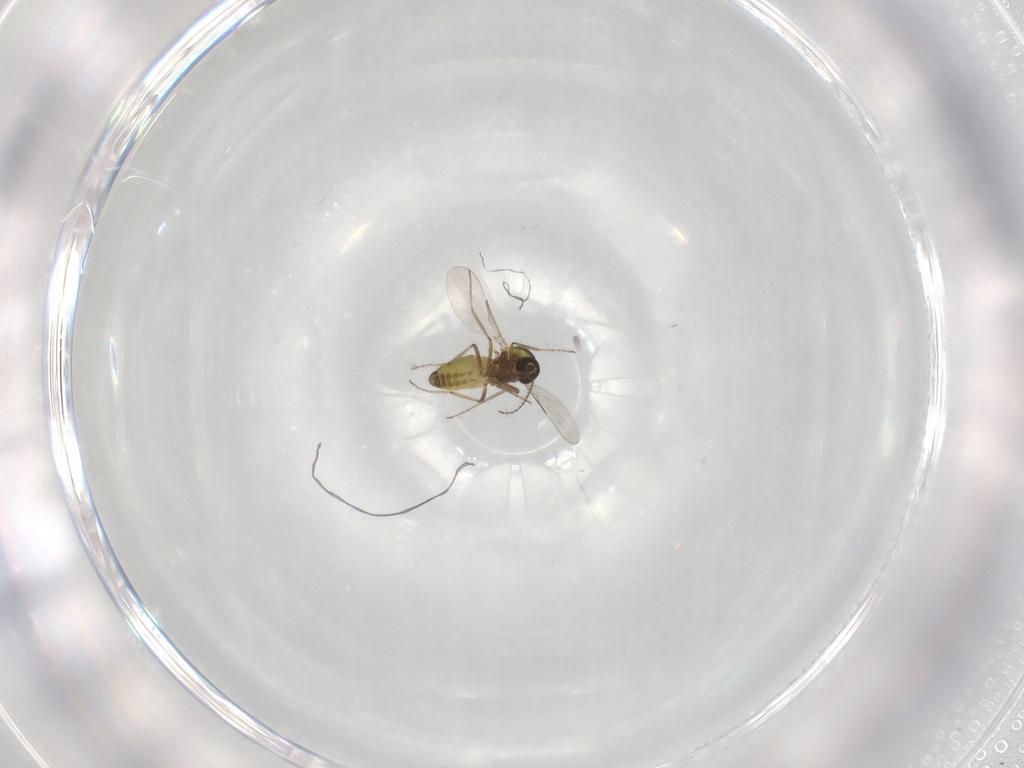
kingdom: Animalia
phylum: Arthropoda
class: Insecta
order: Diptera
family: Ceratopogonidae
